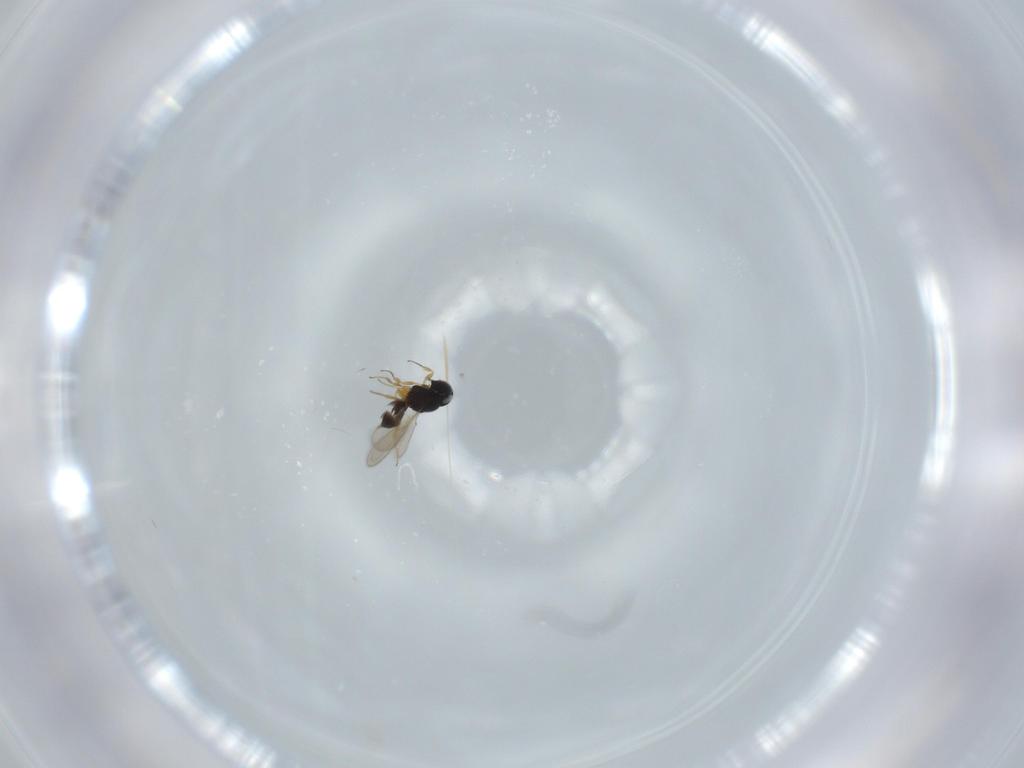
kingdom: Animalia
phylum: Arthropoda
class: Insecta
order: Hymenoptera
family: Scelionidae
